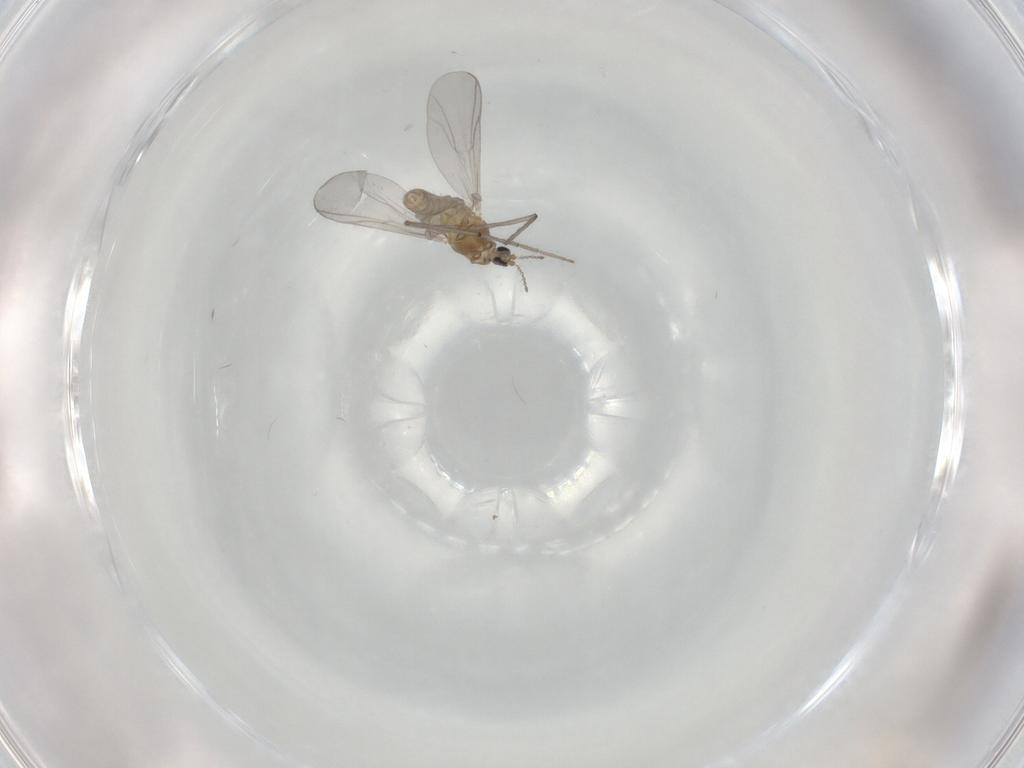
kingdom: Animalia
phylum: Arthropoda
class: Insecta
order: Diptera
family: Chironomidae
